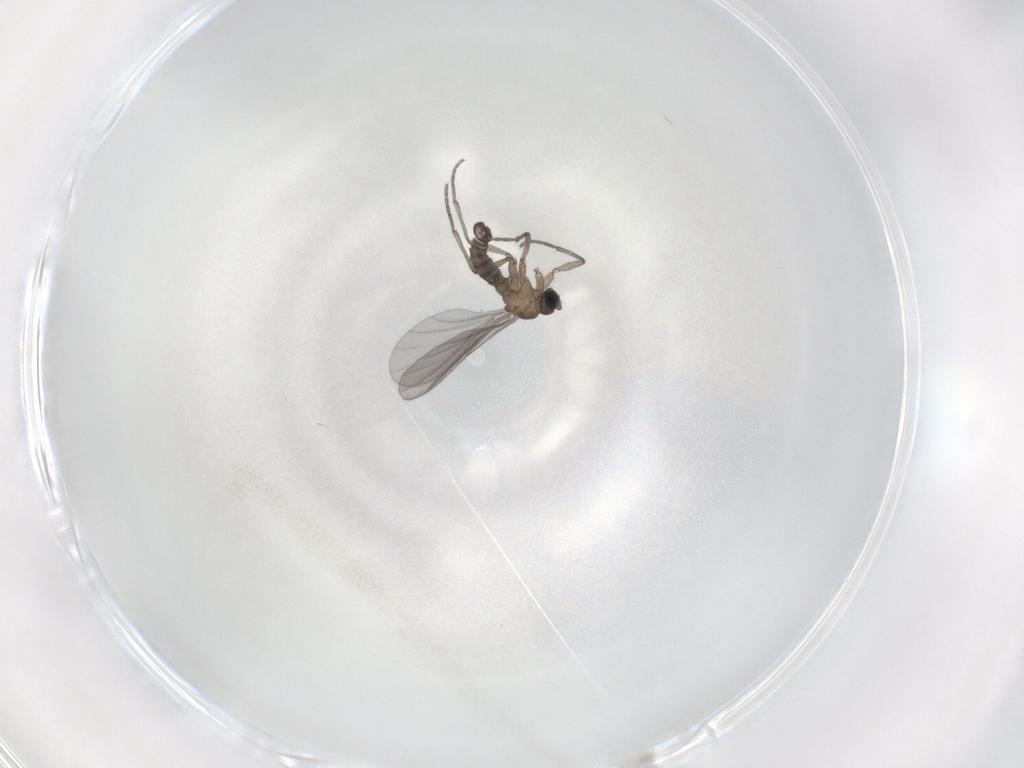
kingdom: Animalia
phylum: Arthropoda
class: Insecta
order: Diptera
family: Sciaridae
